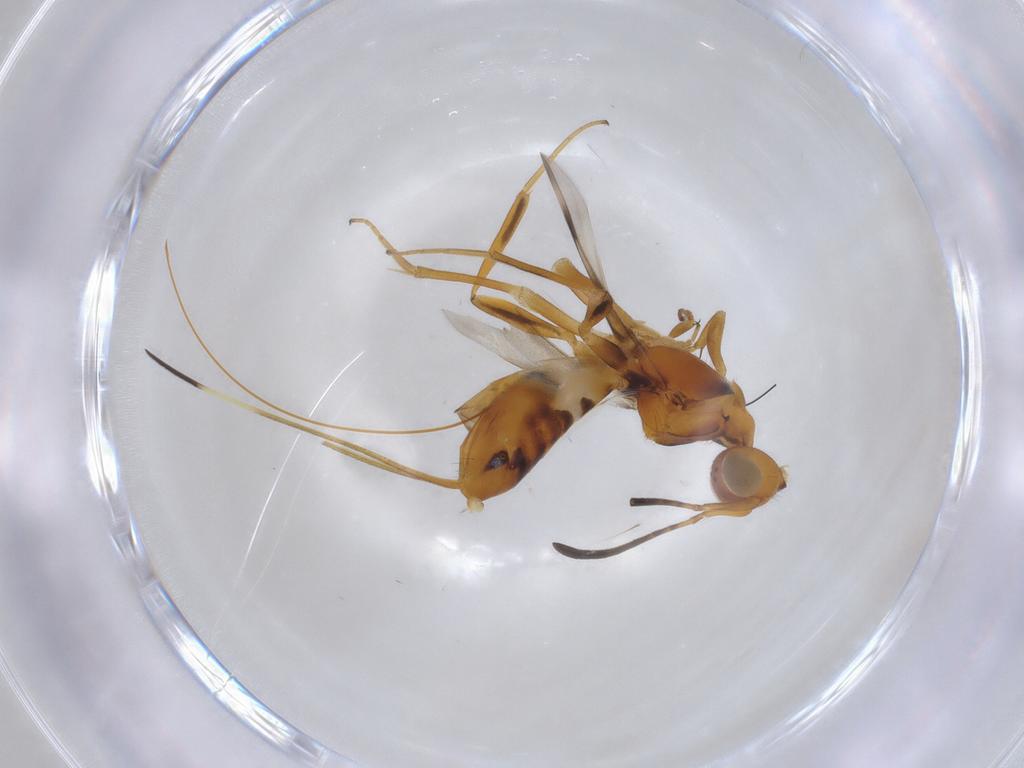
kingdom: Animalia
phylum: Arthropoda
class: Insecta
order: Hymenoptera
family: Eupelmidae
